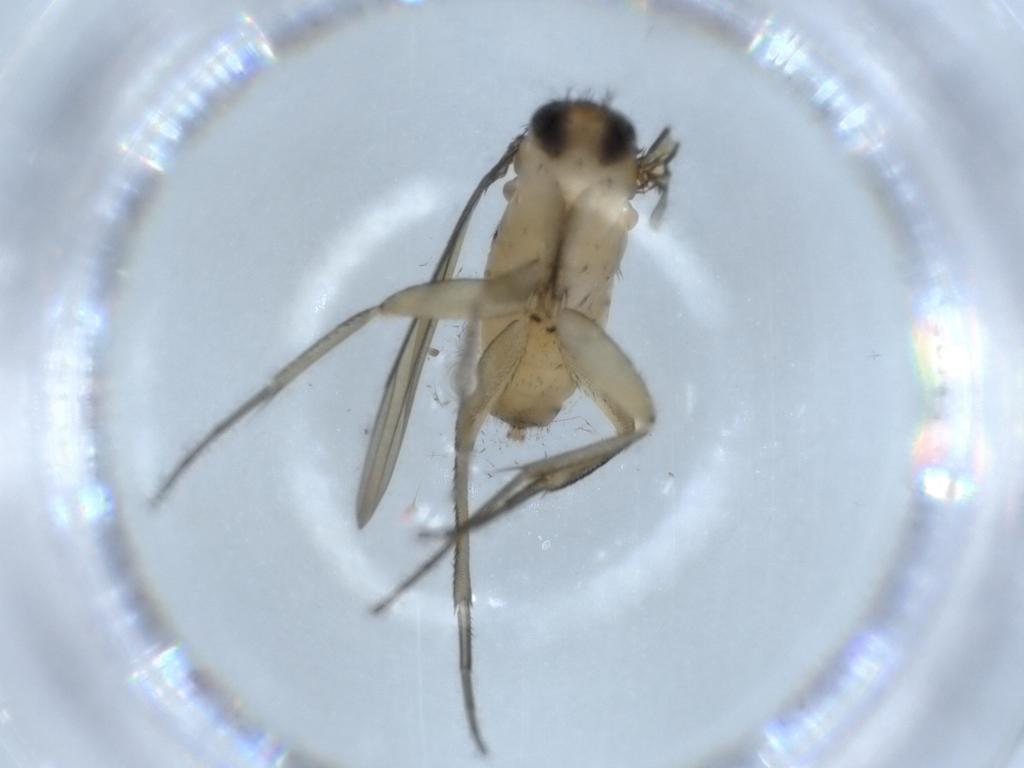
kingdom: Animalia
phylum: Arthropoda
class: Insecta
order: Diptera
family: Phoridae
